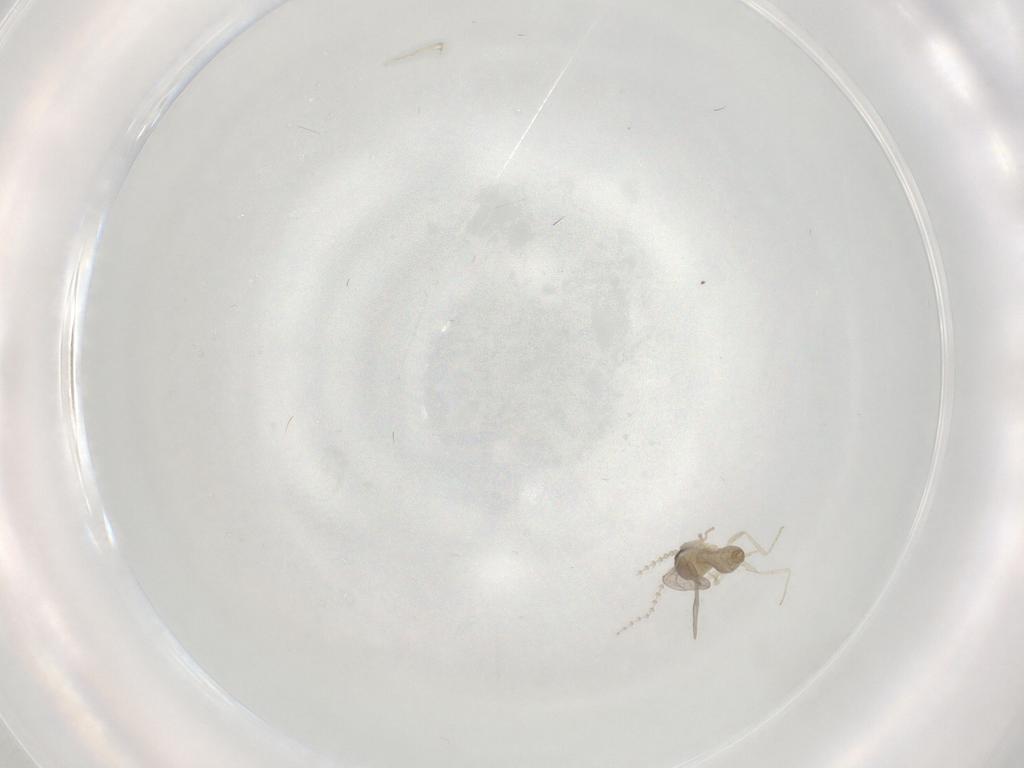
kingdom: Animalia
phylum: Arthropoda
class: Insecta
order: Diptera
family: Cecidomyiidae
